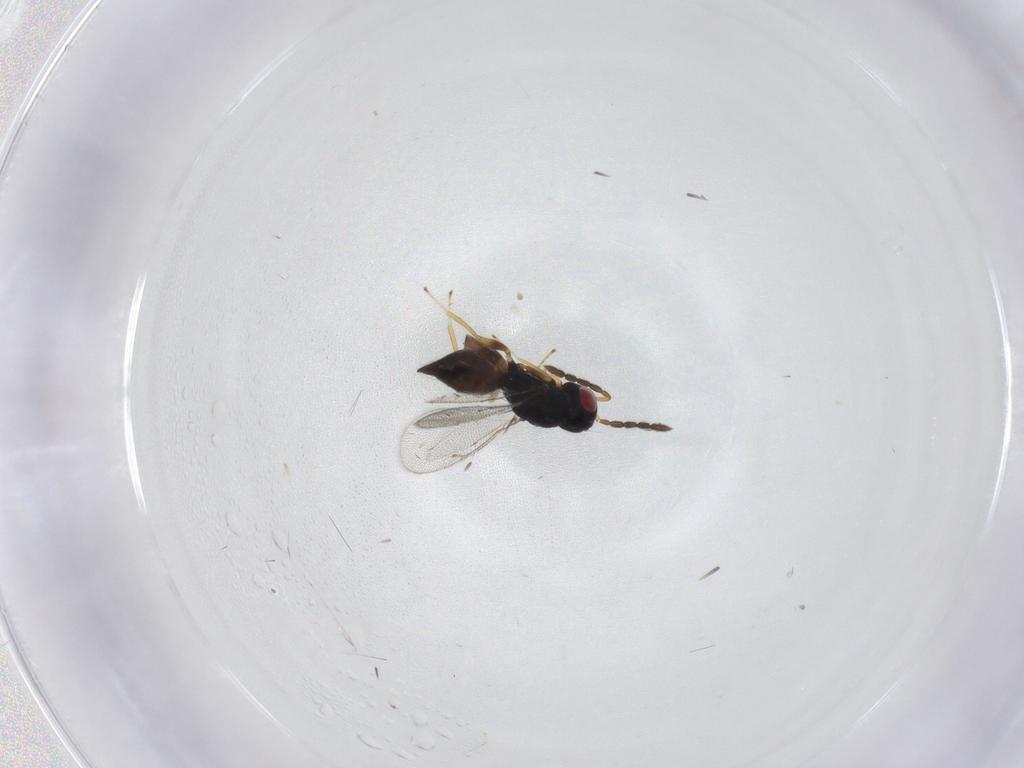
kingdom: Animalia
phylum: Arthropoda
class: Insecta
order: Hymenoptera
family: Eulophidae
